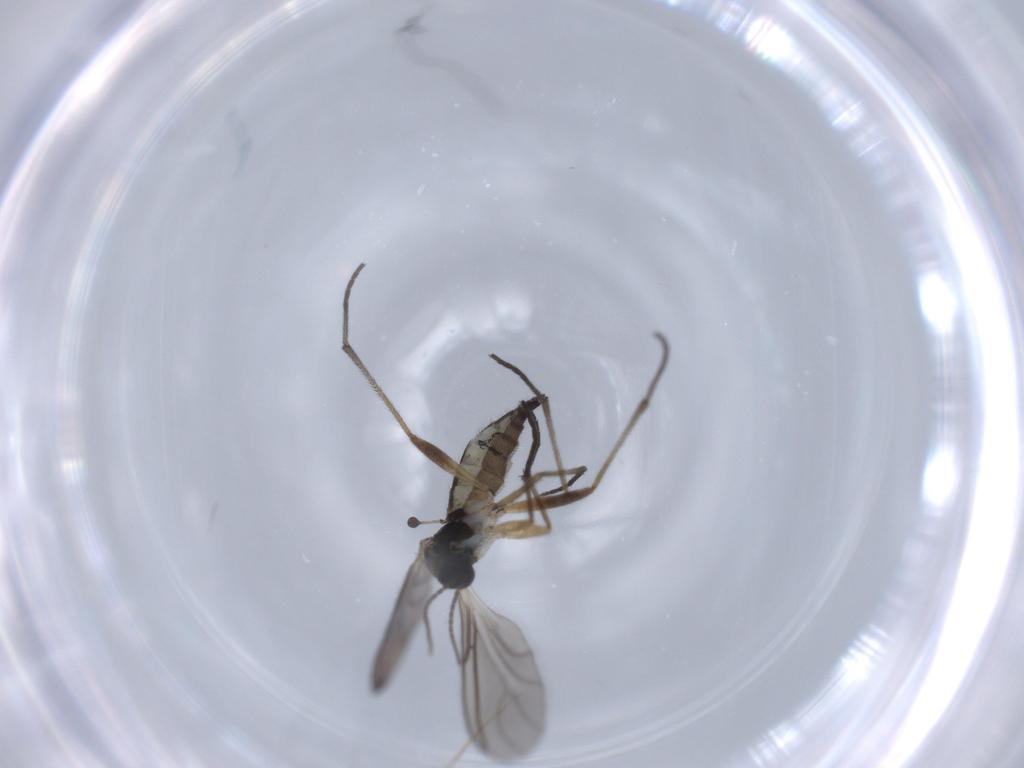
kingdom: Animalia
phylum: Arthropoda
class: Insecta
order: Diptera
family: Sciaridae
